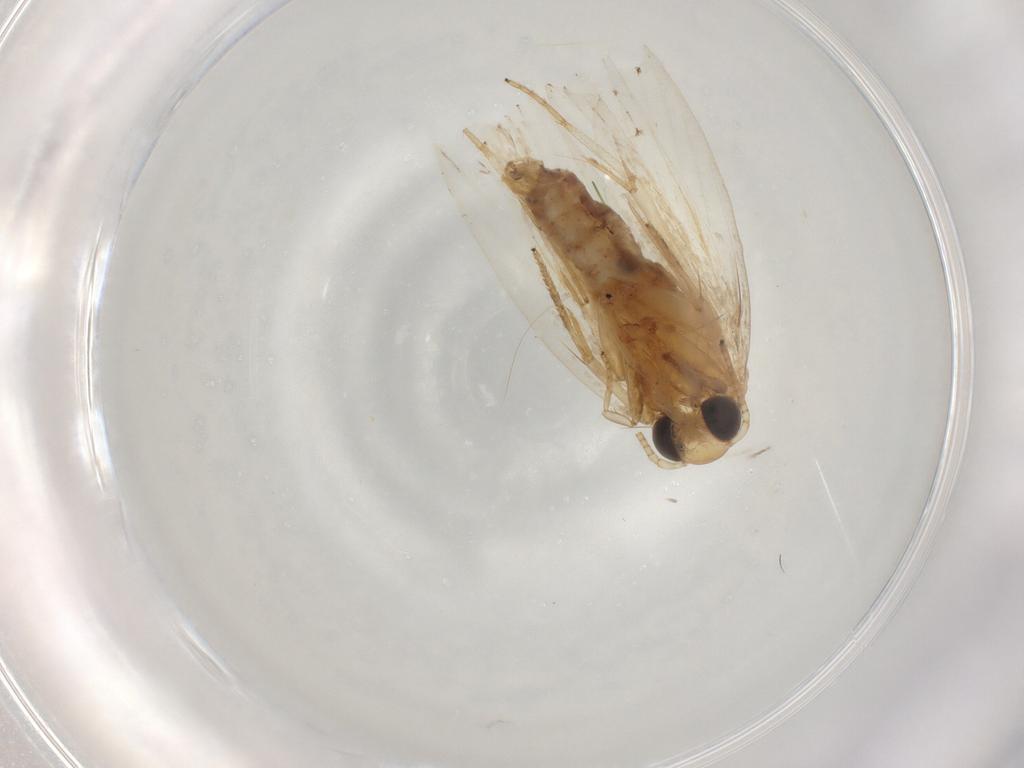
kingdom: Animalia
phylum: Arthropoda
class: Insecta
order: Lepidoptera
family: Depressariidae
